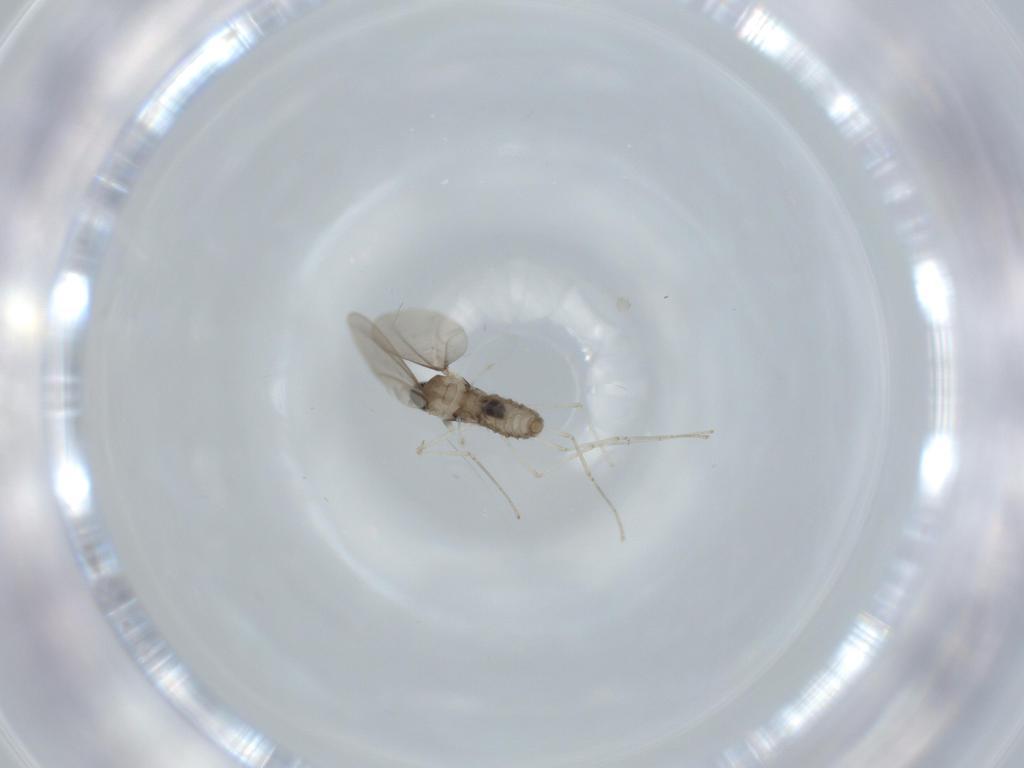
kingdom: Animalia
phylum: Arthropoda
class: Insecta
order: Diptera
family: Cecidomyiidae
